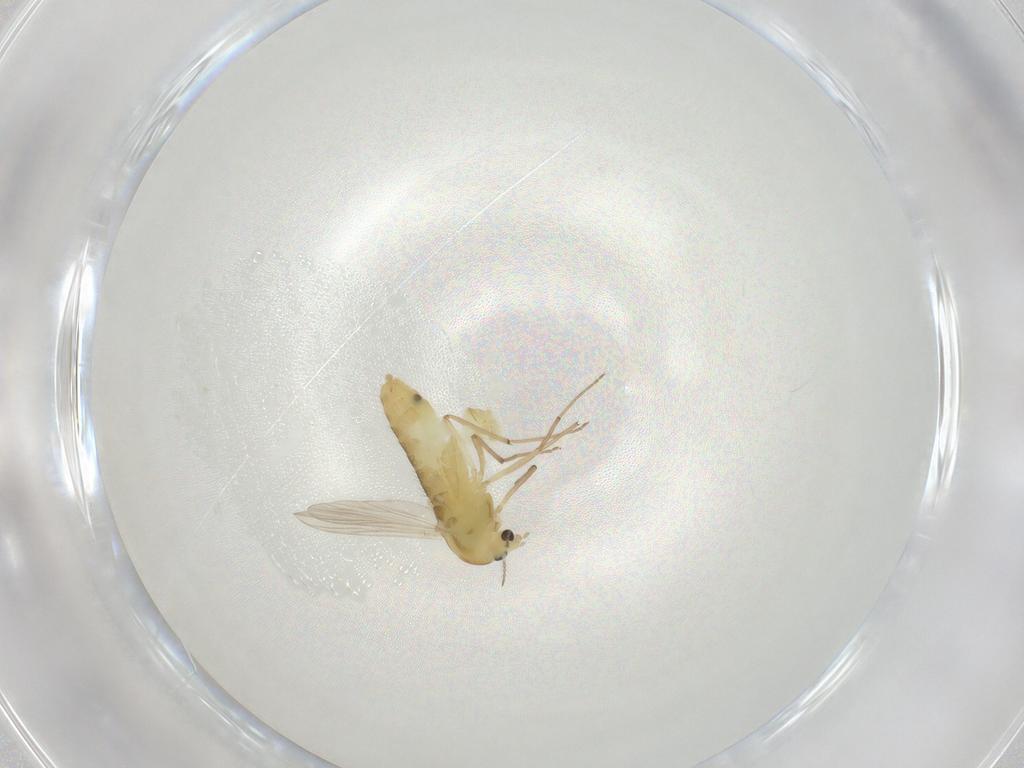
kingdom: Animalia
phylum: Arthropoda
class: Insecta
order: Diptera
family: Chironomidae
